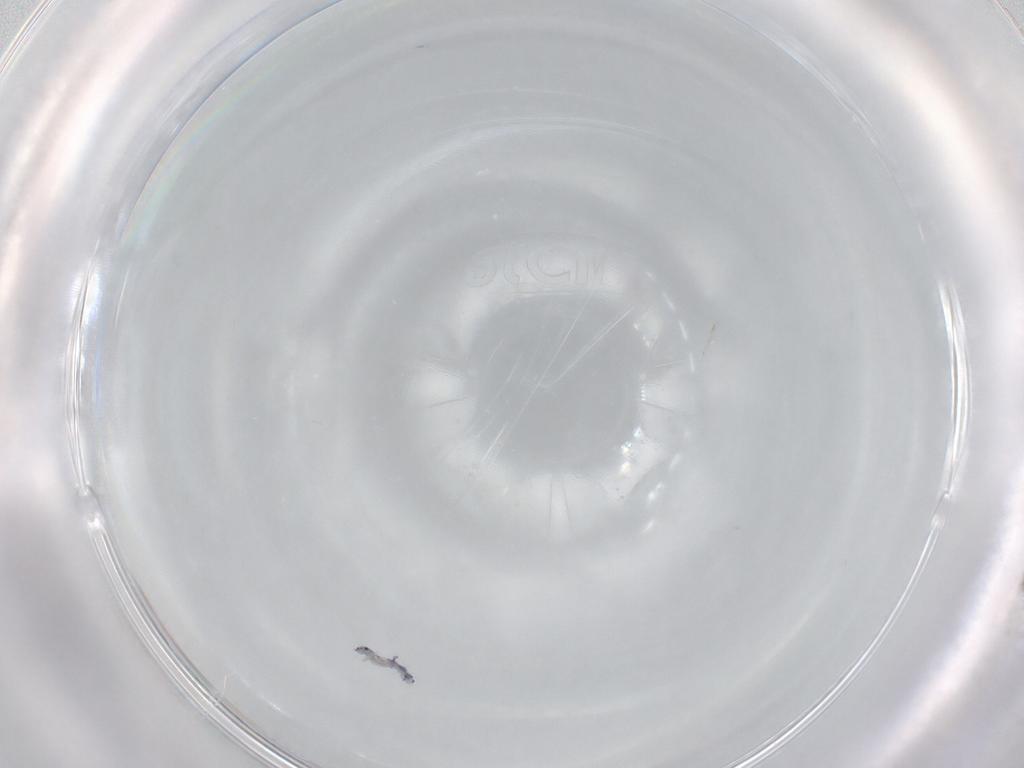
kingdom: Animalia
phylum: Arthropoda
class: Collembola
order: Entomobryomorpha
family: Entomobryidae
